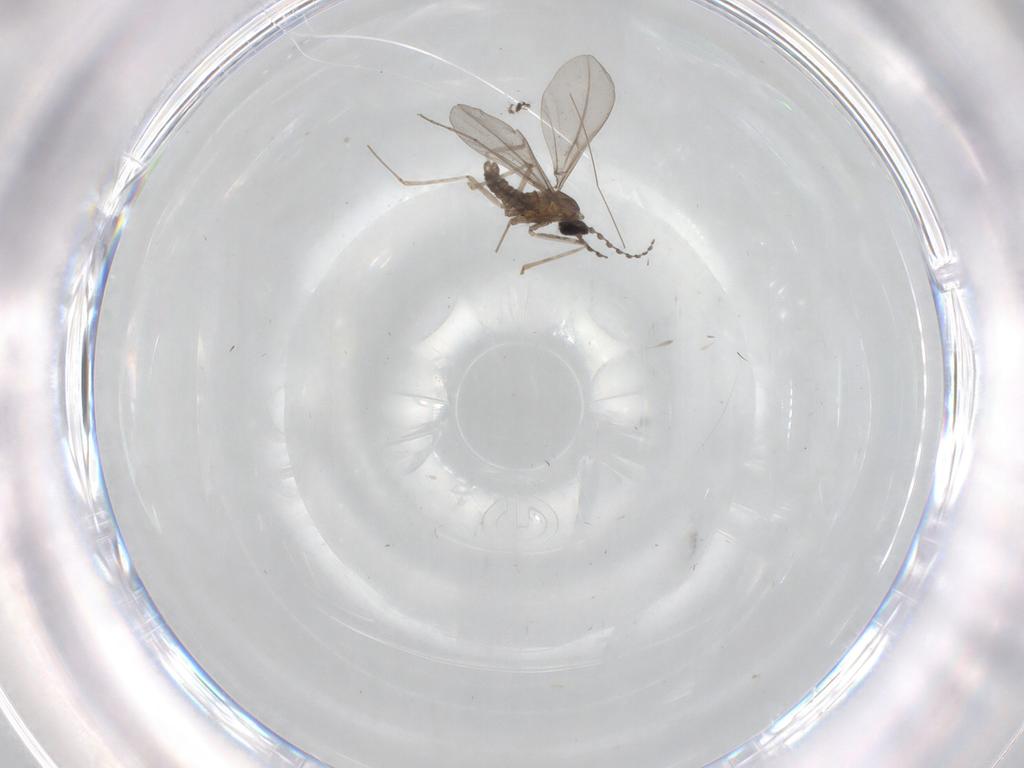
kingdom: Animalia
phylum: Arthropoda
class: Insecta
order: Diptera
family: Cecidomyiidae
